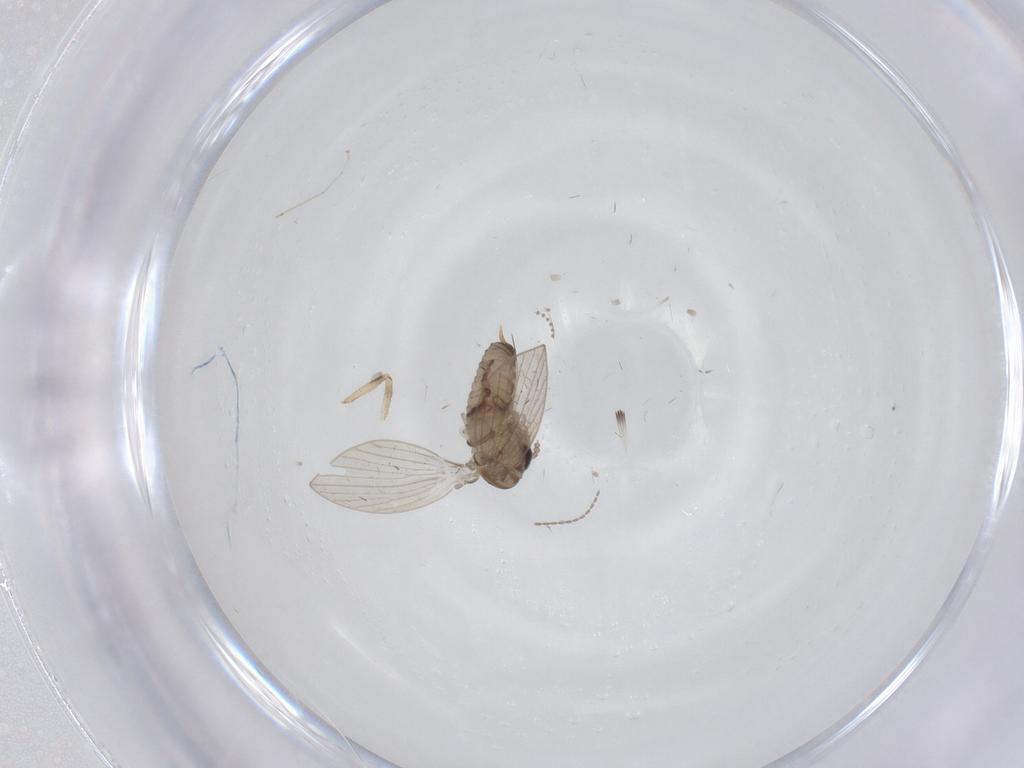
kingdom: Animalia
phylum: Arthropoda
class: Insecta
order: Diptera
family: Psychodidae
